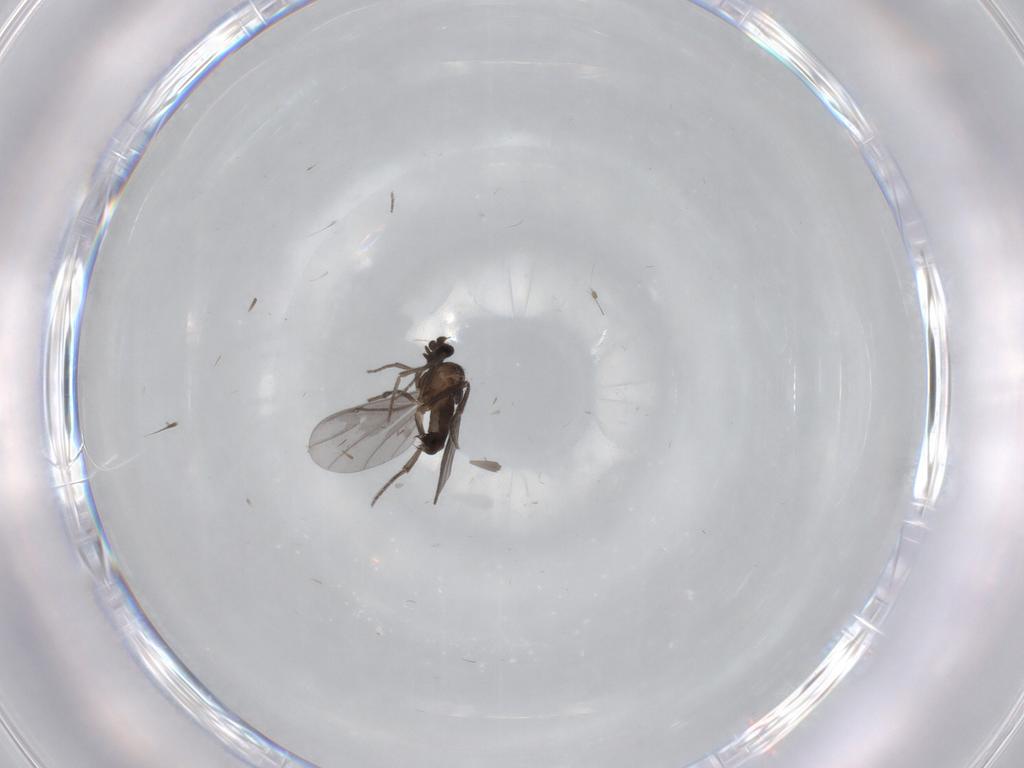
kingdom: Animalia
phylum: Arthropoda
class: Insecta
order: Diptera
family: Phoridae
